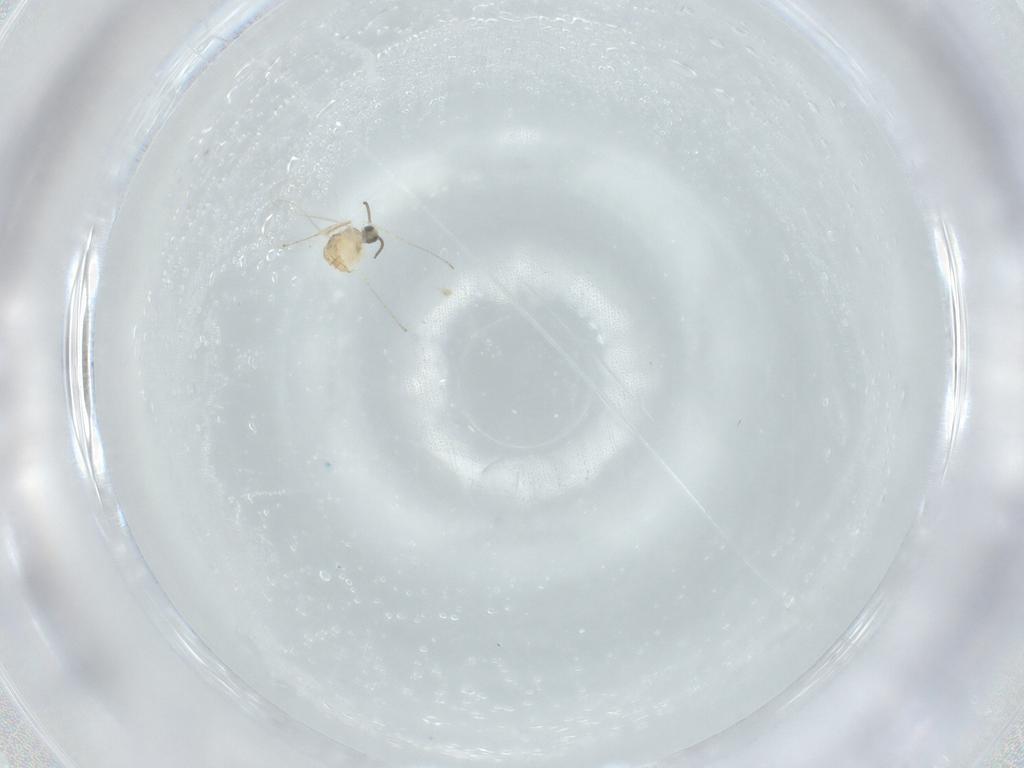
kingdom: Animalia
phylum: Arthropoda
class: Insecta
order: Diptera
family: Cecidomyiidae
